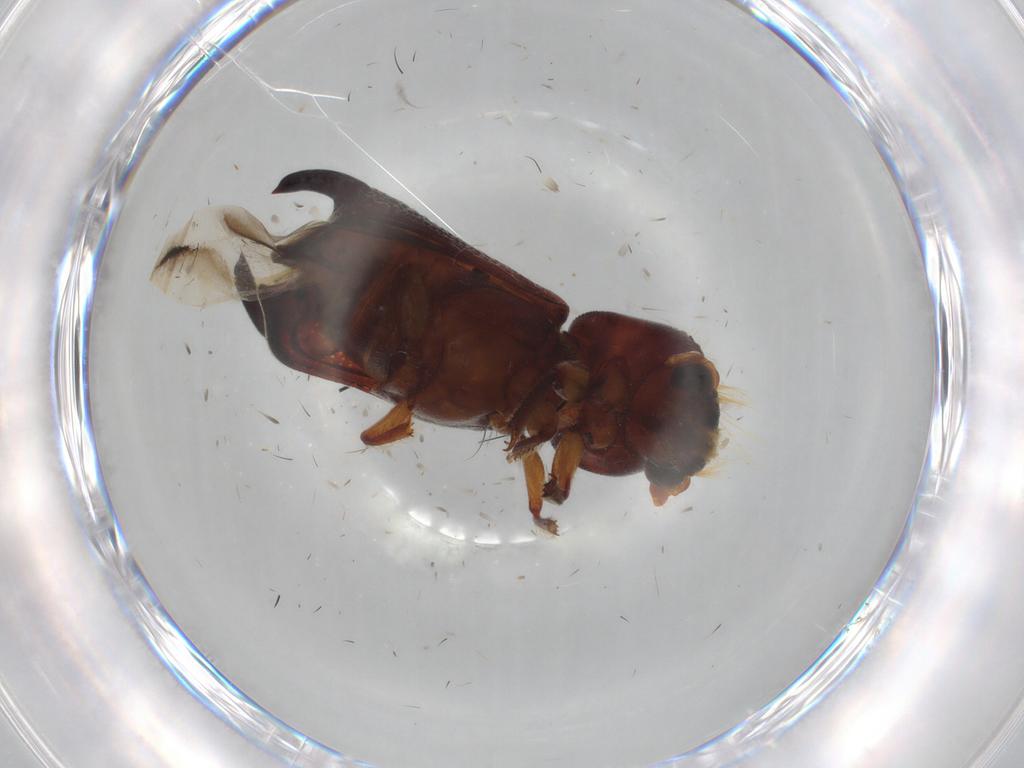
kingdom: Animalia
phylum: Arthropoda
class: Insecta
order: Coleoptera
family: Bostrichidae
